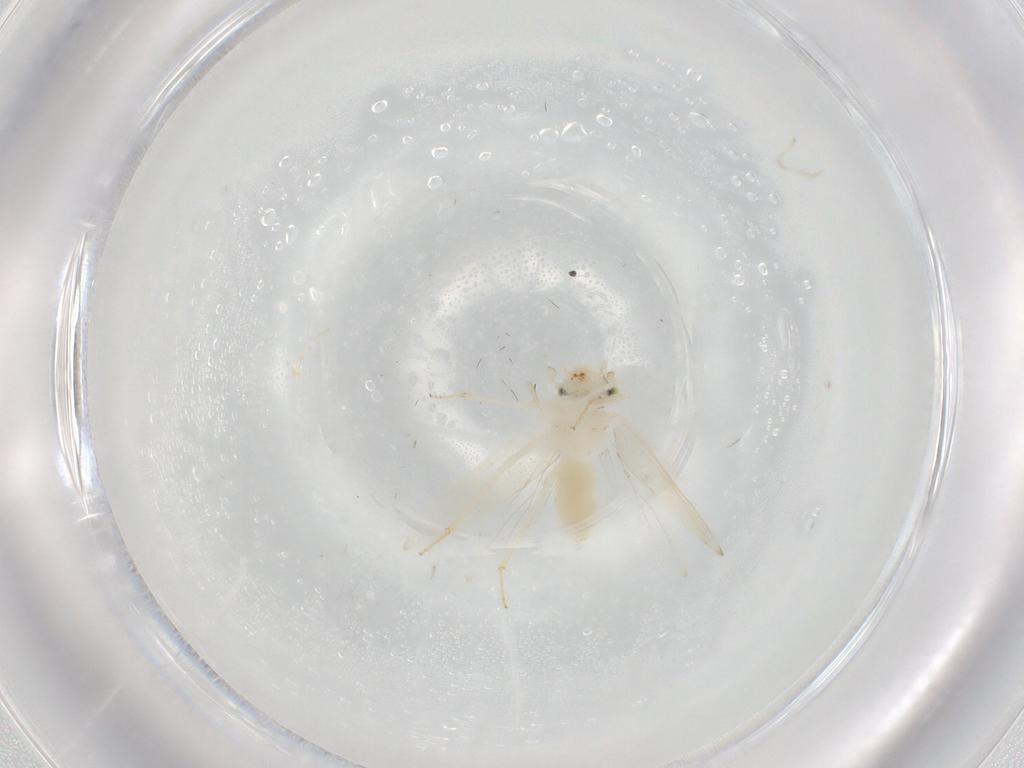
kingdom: Animalia
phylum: Arthropoda
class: Insecta
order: Psocodea
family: Lepidopsocidae
